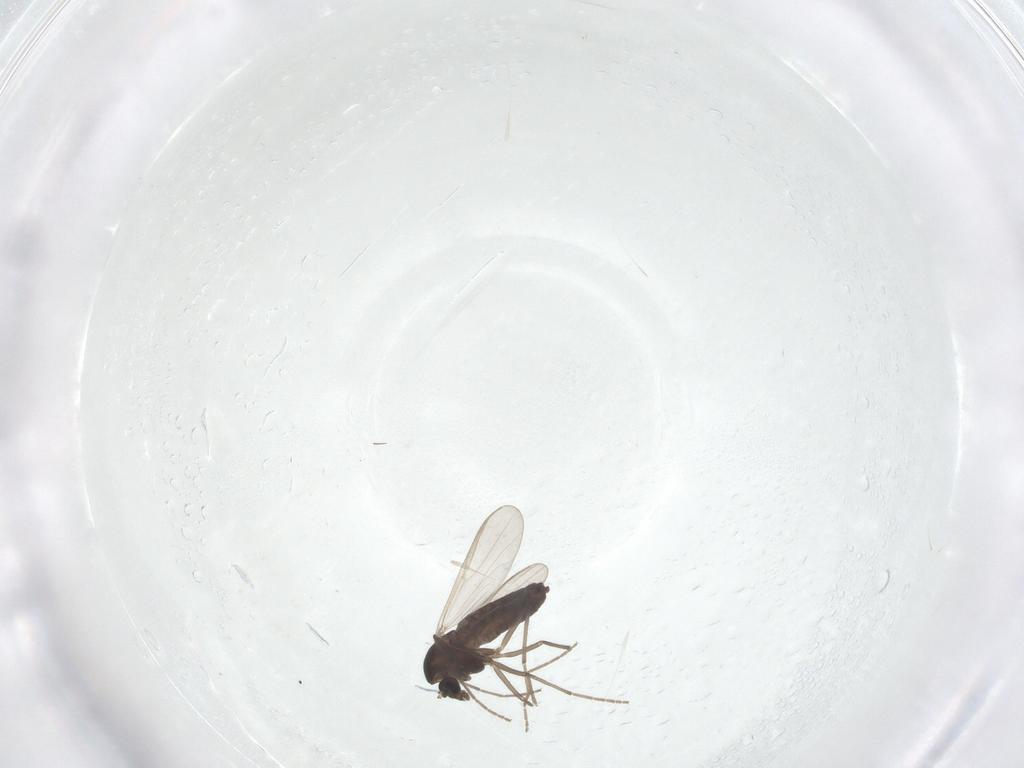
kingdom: Animalia
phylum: Arthropoda
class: Insecta
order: Diptera
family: Chironomidae
